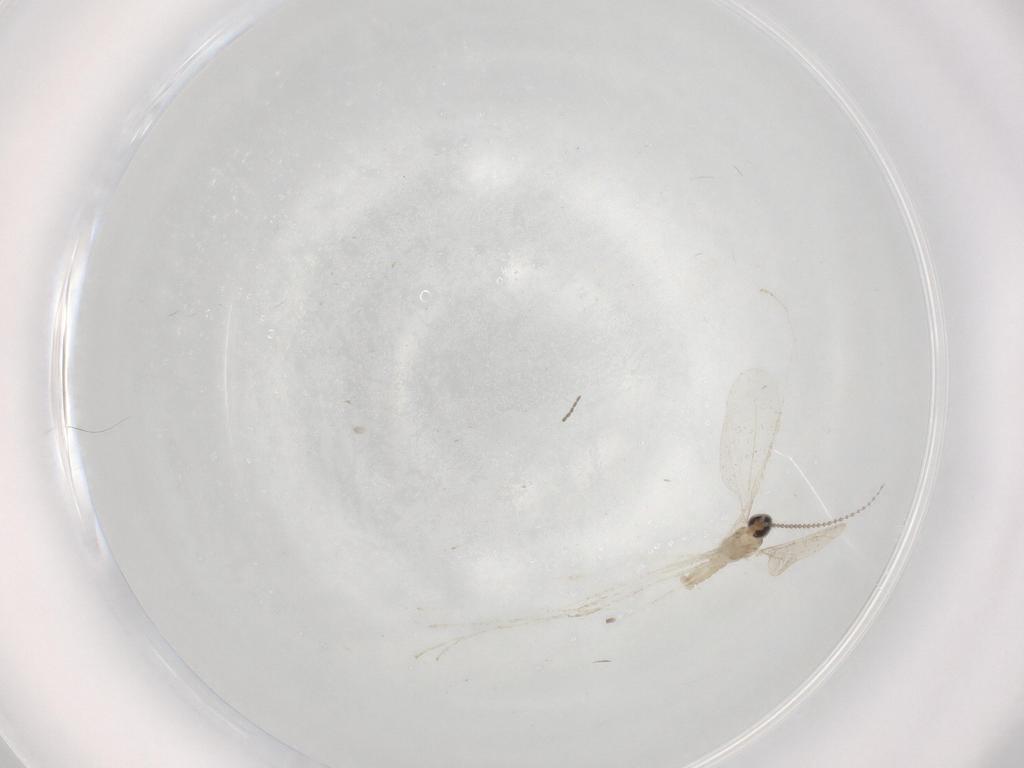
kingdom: Animalia
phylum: Arthropoda
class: Insecta
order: Diptera
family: Cecidomyiidae
